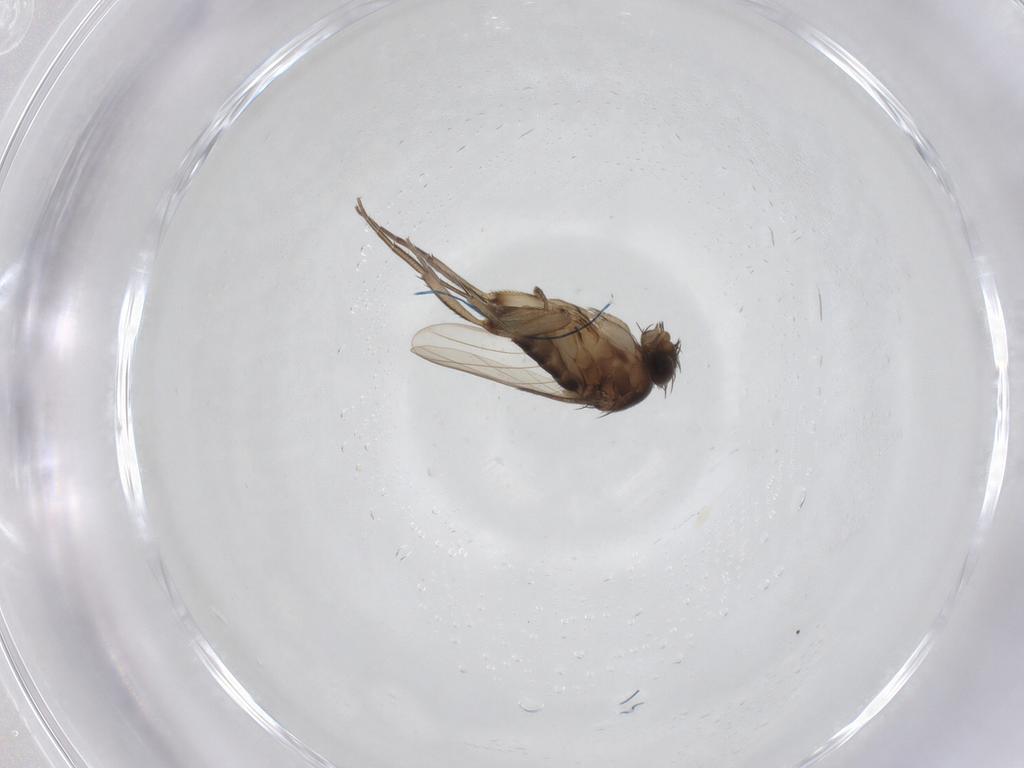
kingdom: Animalia
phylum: Arthropoda
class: Insecta
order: Diptera
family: Phoridae
